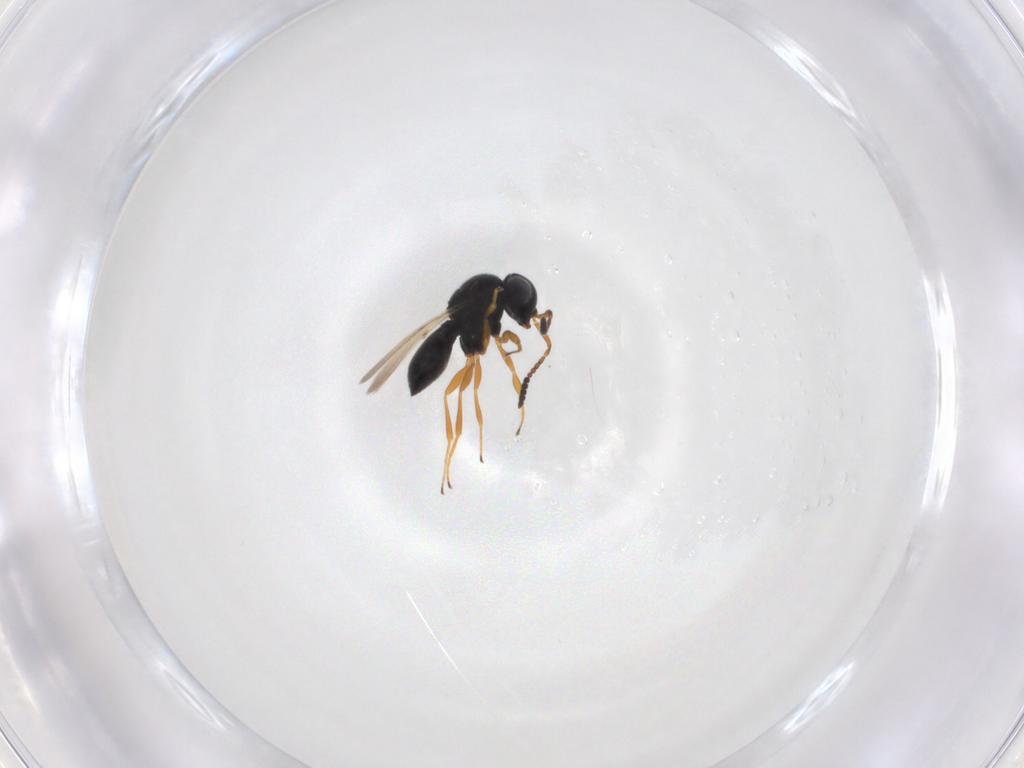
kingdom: Animalia
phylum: Arthropoda
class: Insecta
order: Hymenoptera
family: Scelionidae
